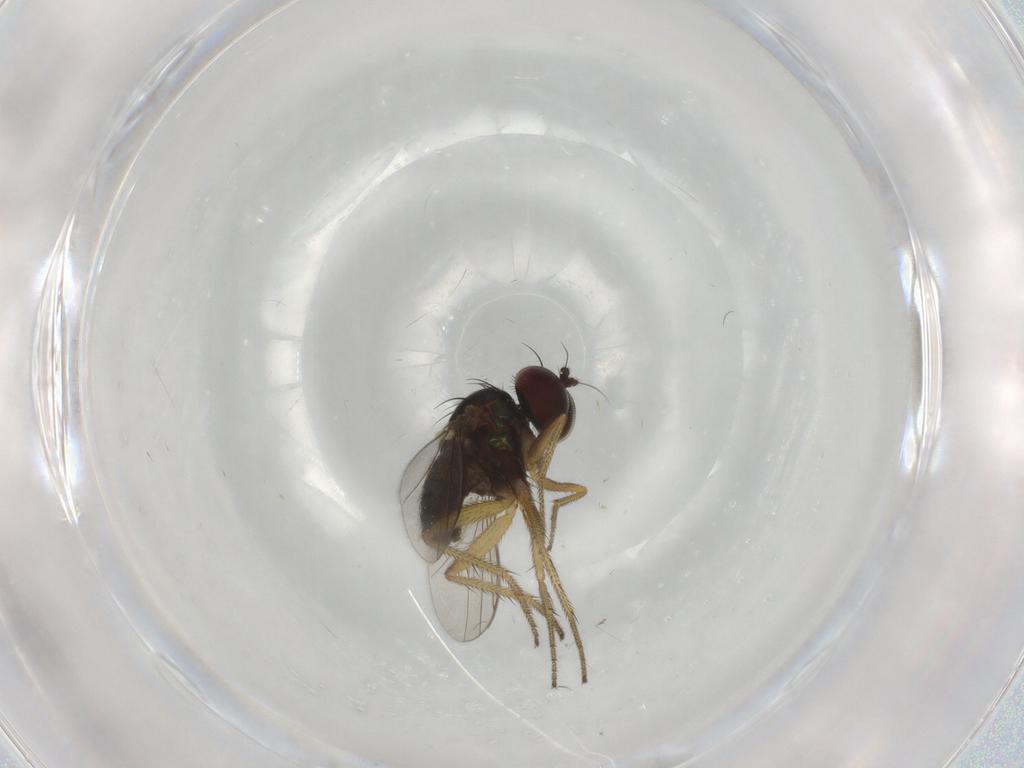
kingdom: Animalia
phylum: Arthropoda
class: Insecta
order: Diptera
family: Dolichopodidae
